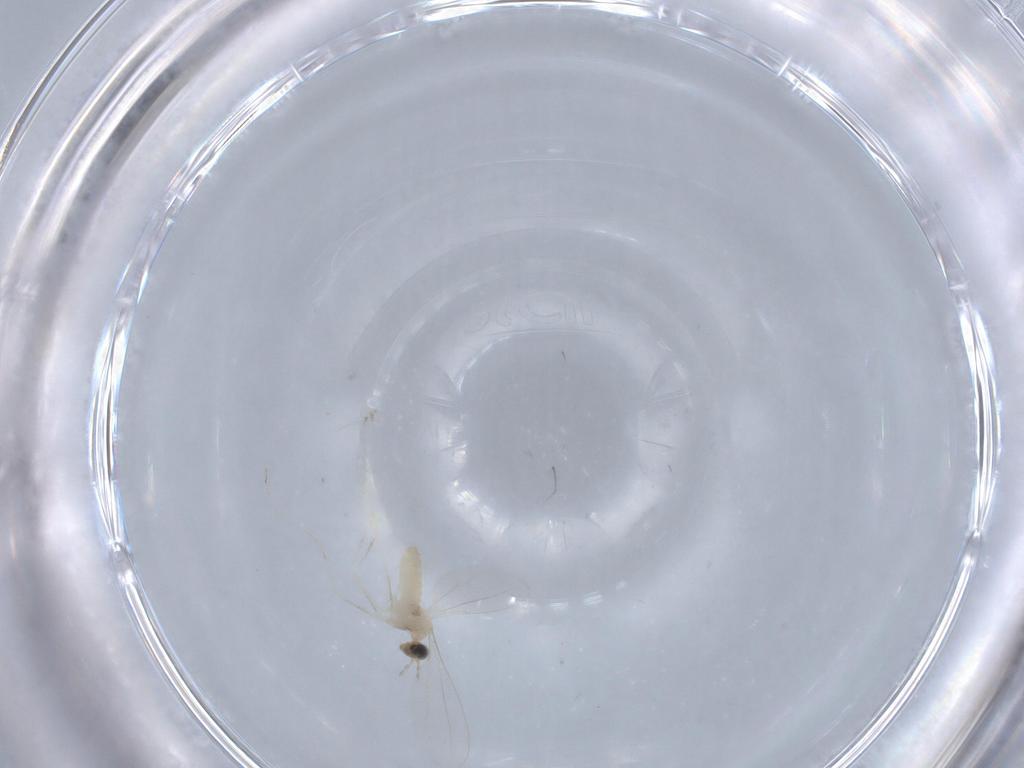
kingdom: Animalia
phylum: Arthropoda
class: Insecta
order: Diptera
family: Cecidomyiidae
